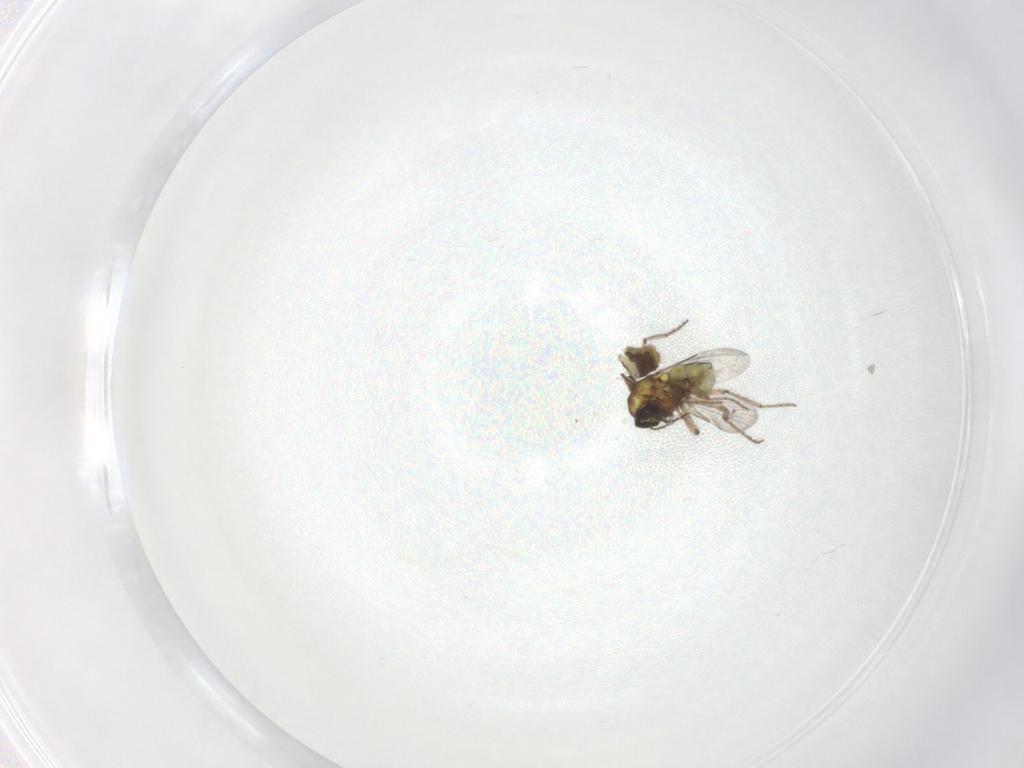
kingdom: Animalia
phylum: Arthropoda
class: Insecta
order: Diptera
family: Ceratopogonidae
